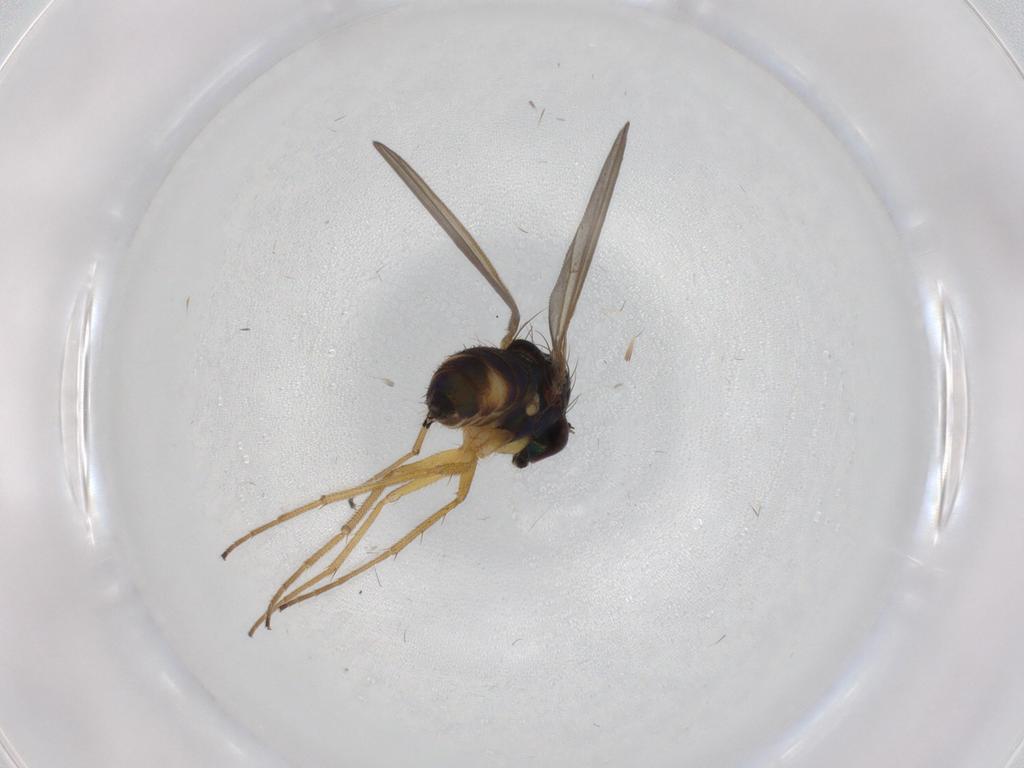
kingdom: Animalia
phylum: Arthropoda
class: Insecta
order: Diptera
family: Dolichopodidae
